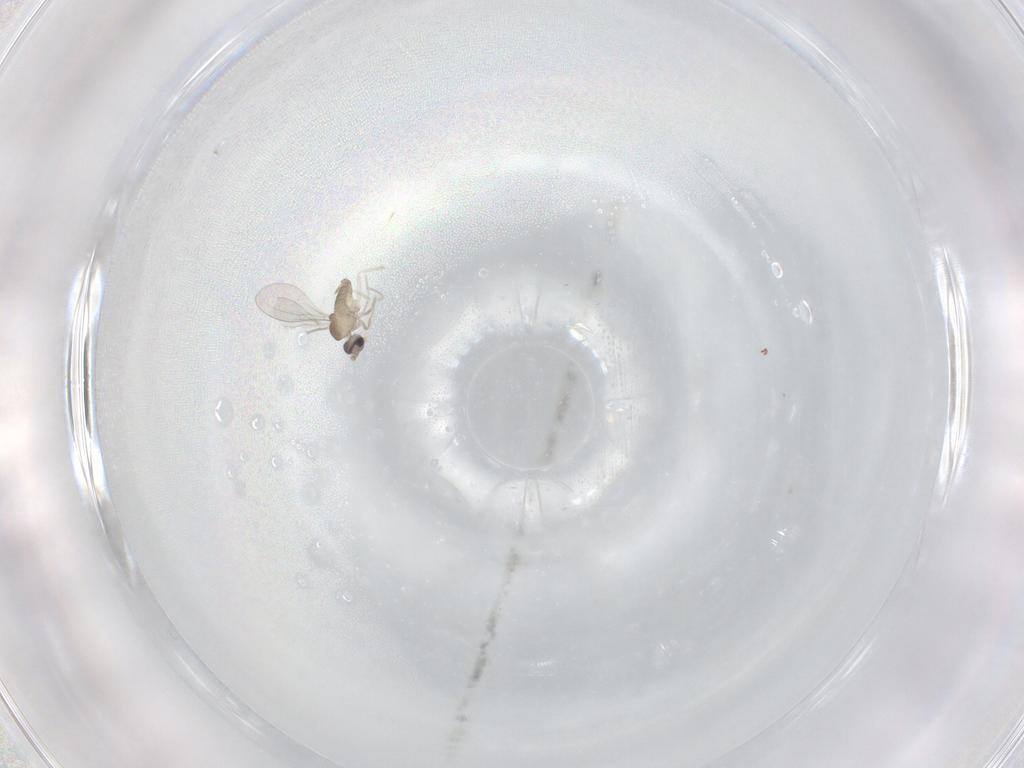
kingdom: Animalia
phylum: Arthropoda
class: Insecta
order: Diptera
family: Cecidomyiidae
